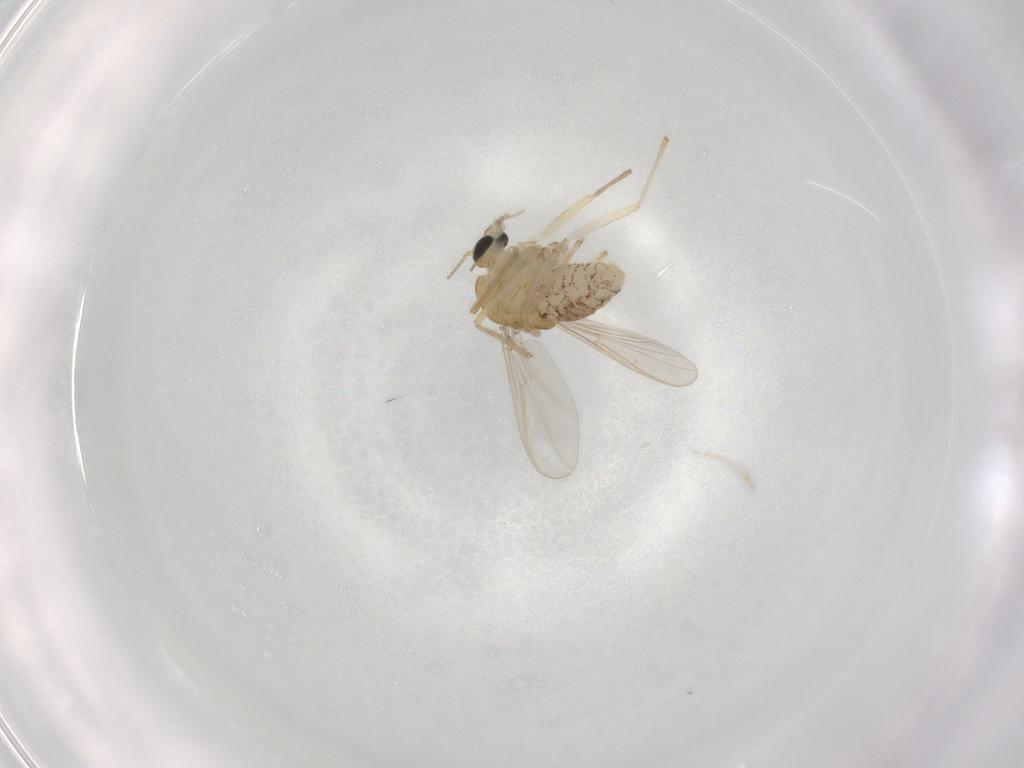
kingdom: Animalia
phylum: Arthropoda
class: Insecta
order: Diptera
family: Chironomidae
